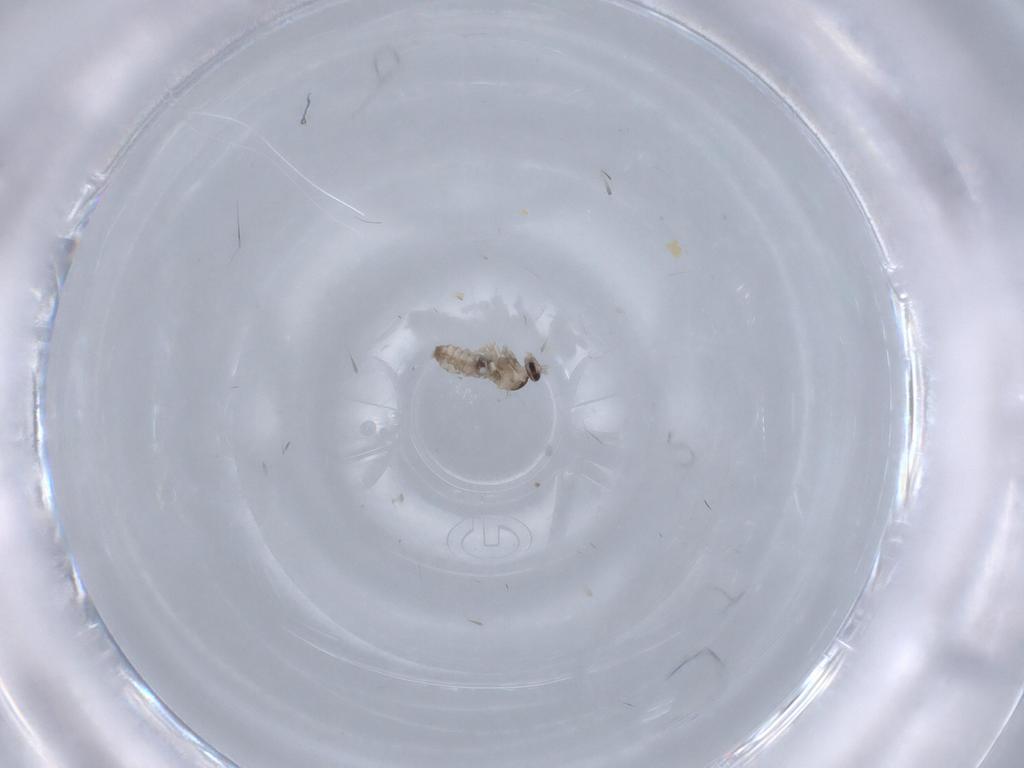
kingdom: Animalia
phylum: Arthropoda
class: Insecta
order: Diptera
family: Cecidomyiidae
